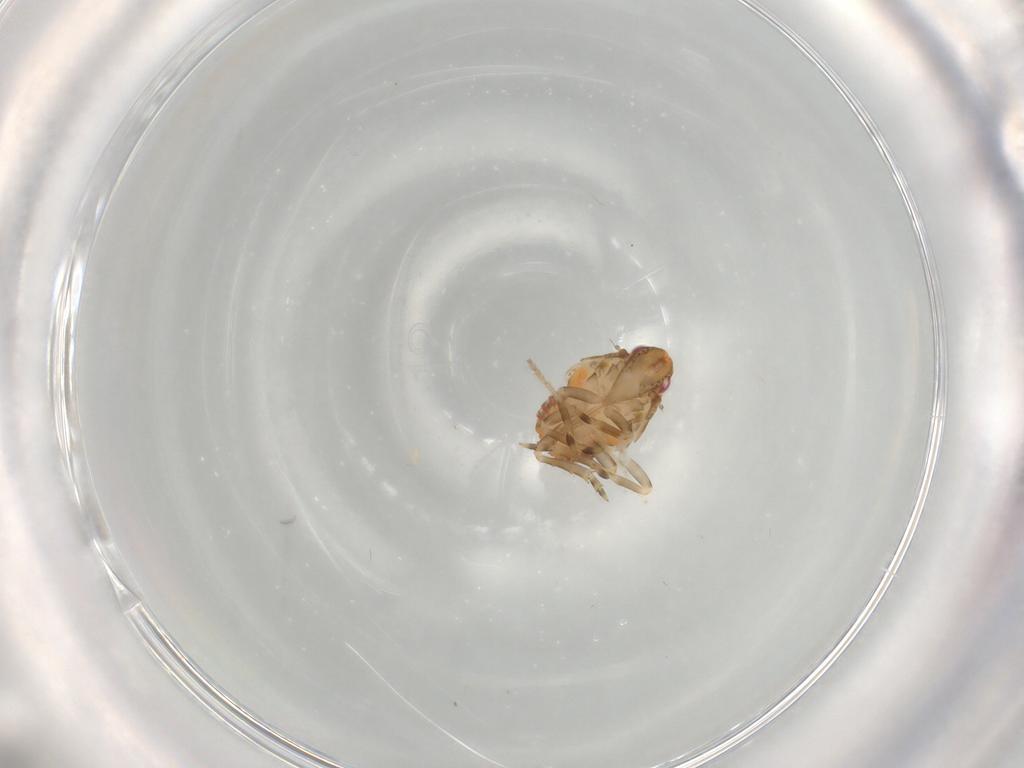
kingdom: Animalia
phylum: Arthropoda
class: Insecta
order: Hemiptera
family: Flatidae
